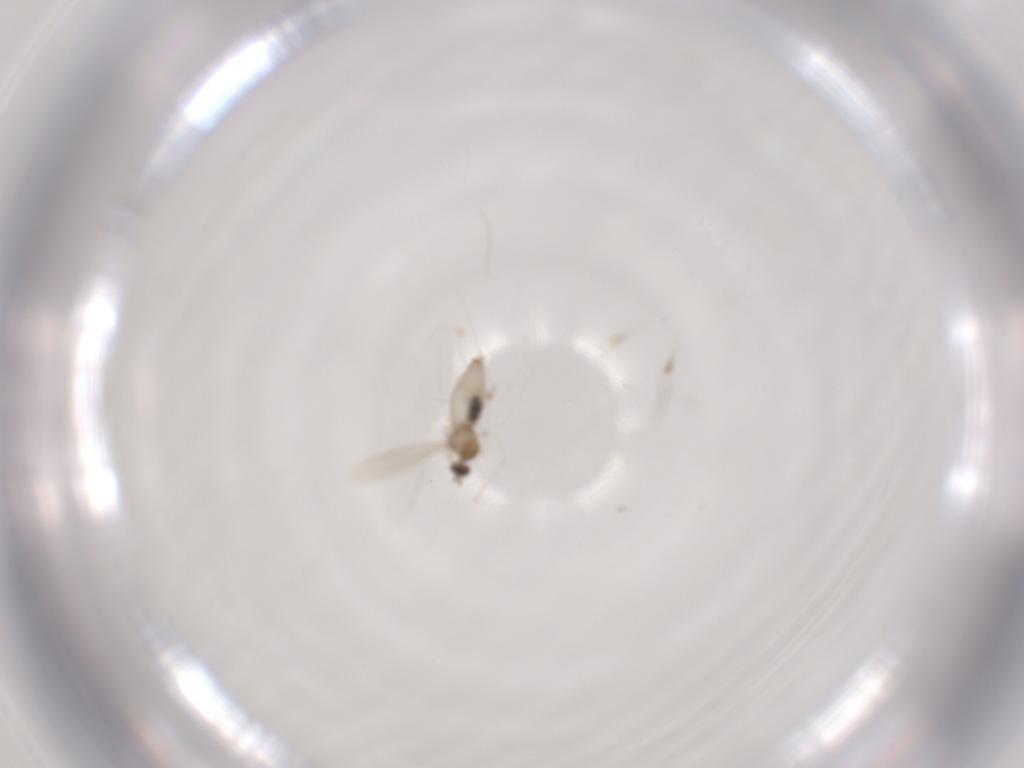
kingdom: Animalia
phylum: Arthropoda
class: Insecta
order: Diptera
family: Cecidomyiidae
